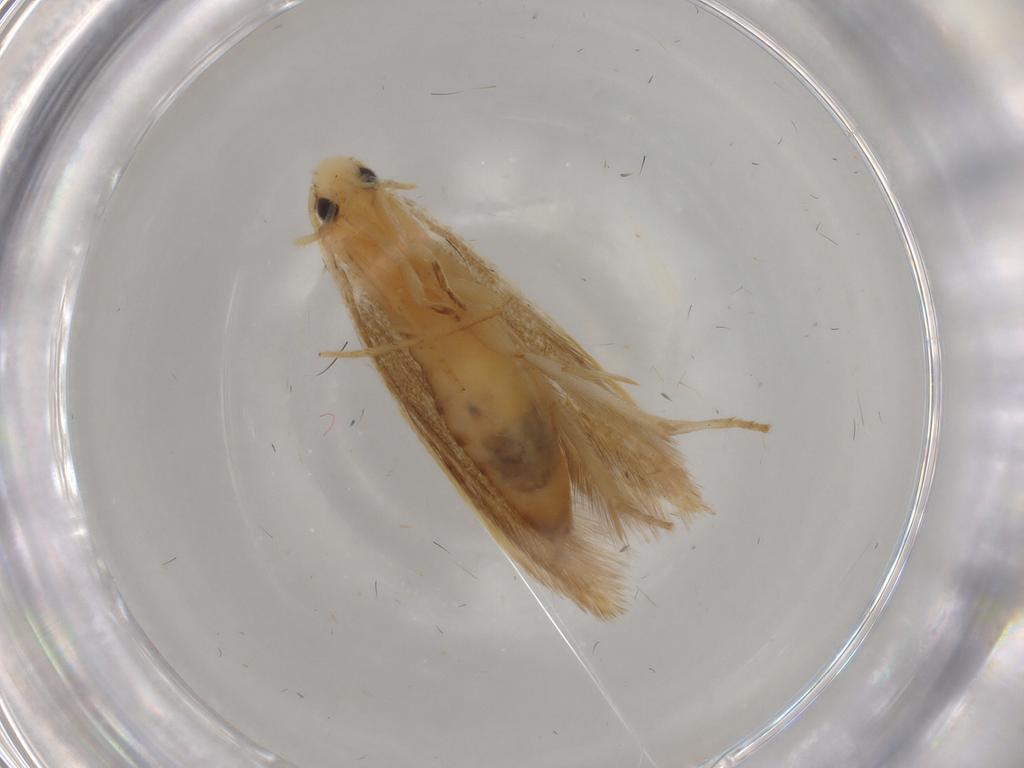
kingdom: Animalia
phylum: Arthropoda
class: Insecta
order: Lepidoptera
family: Tineidae
